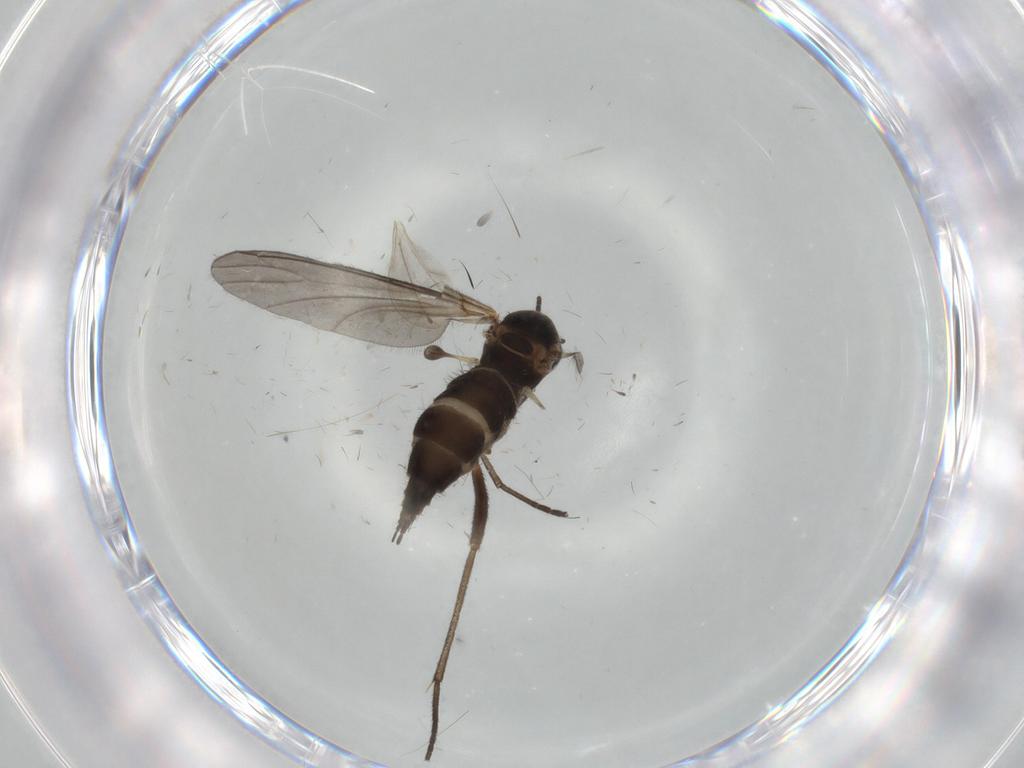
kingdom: Animalia
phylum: Arthropoda
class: Insecta
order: Diptera
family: Sciaridae
